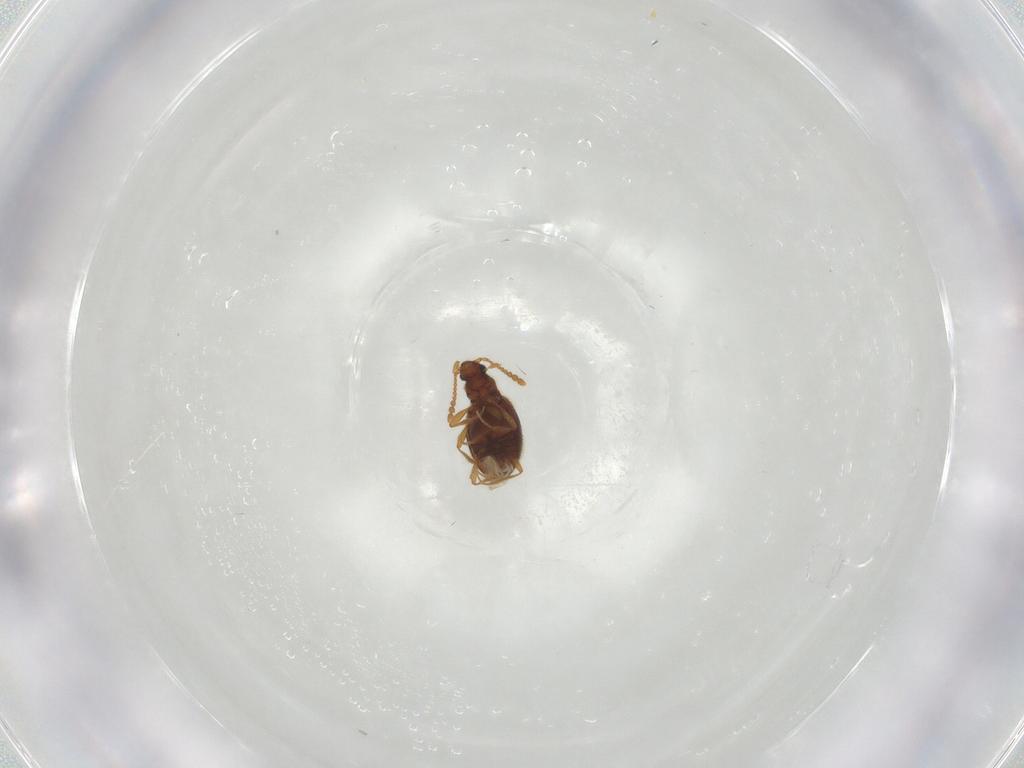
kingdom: Animalia
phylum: Arthropoda
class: Insecta
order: Coleoptera
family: Staphylinidae
